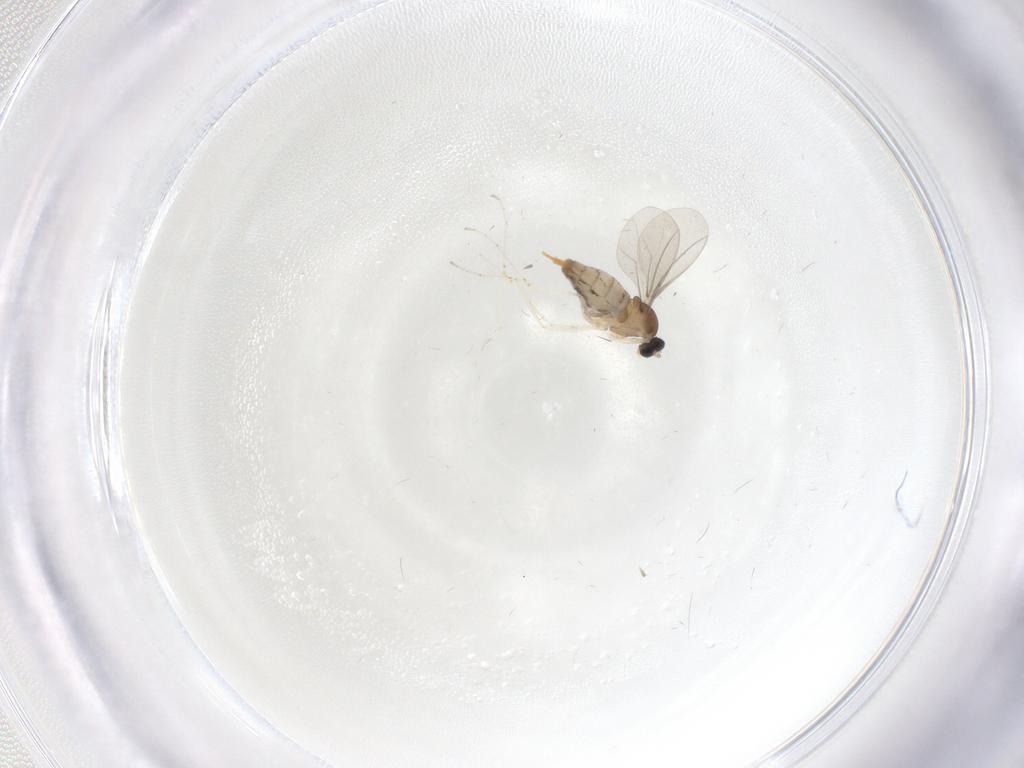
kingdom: Animalia
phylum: Arthropoda
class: Insecta
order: Diptera
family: Cecidomyiidae
